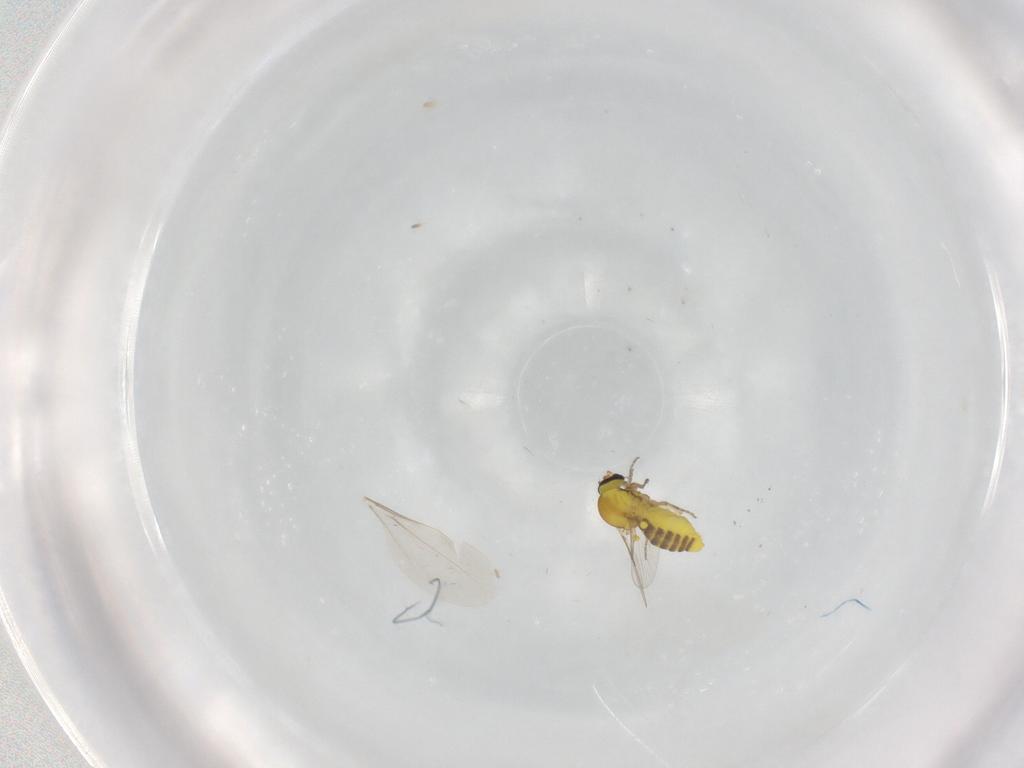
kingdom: Animalia
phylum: Arthropoda
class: Insecta
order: Diptera
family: Ceratopogonidae
